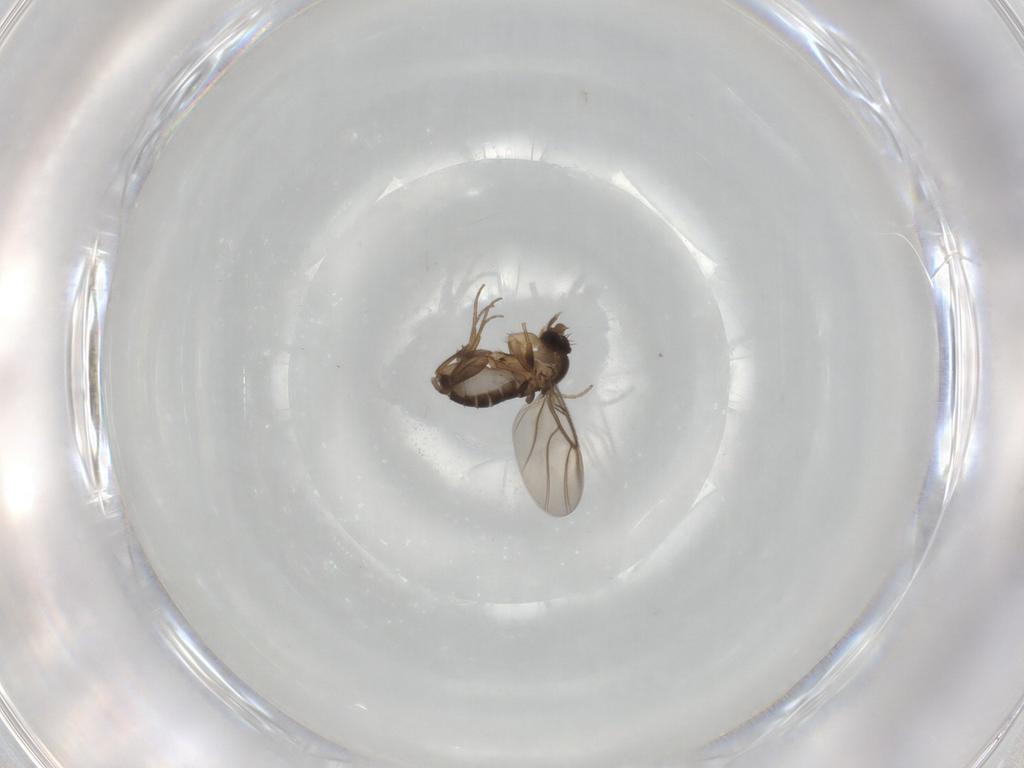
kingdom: Animalia
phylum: Arthropoda
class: Insecta
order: Diptera
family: Phoridae
